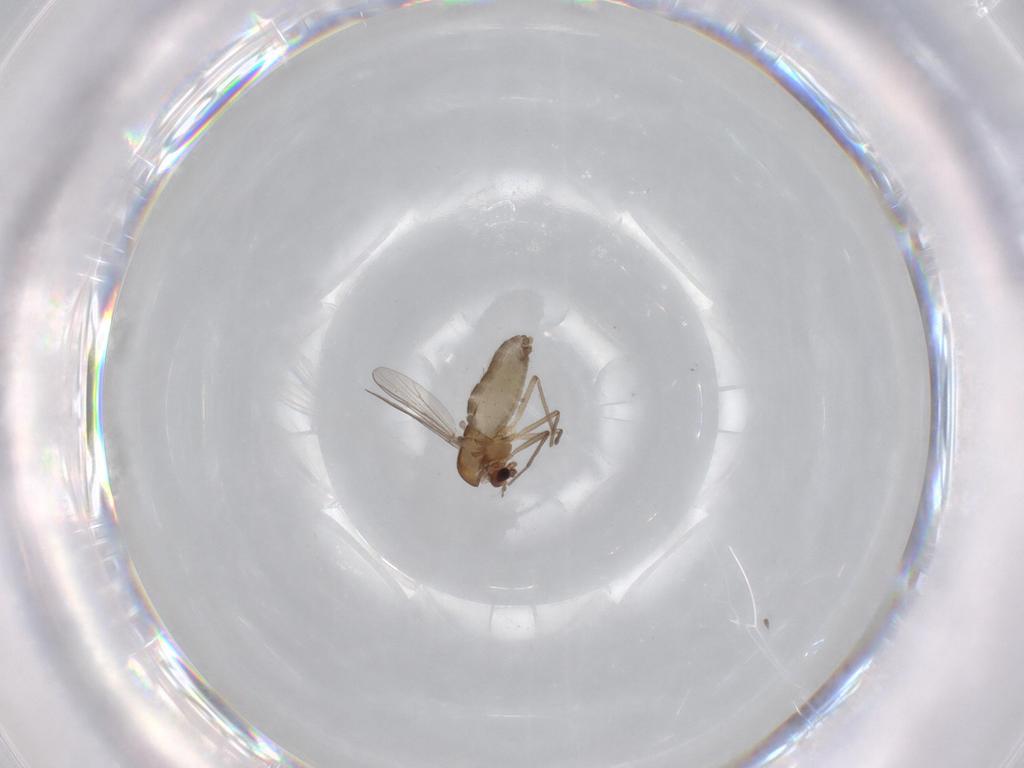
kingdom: Animalia
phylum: Arthropoda
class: Insecta
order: Diptera
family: Chironomidae
